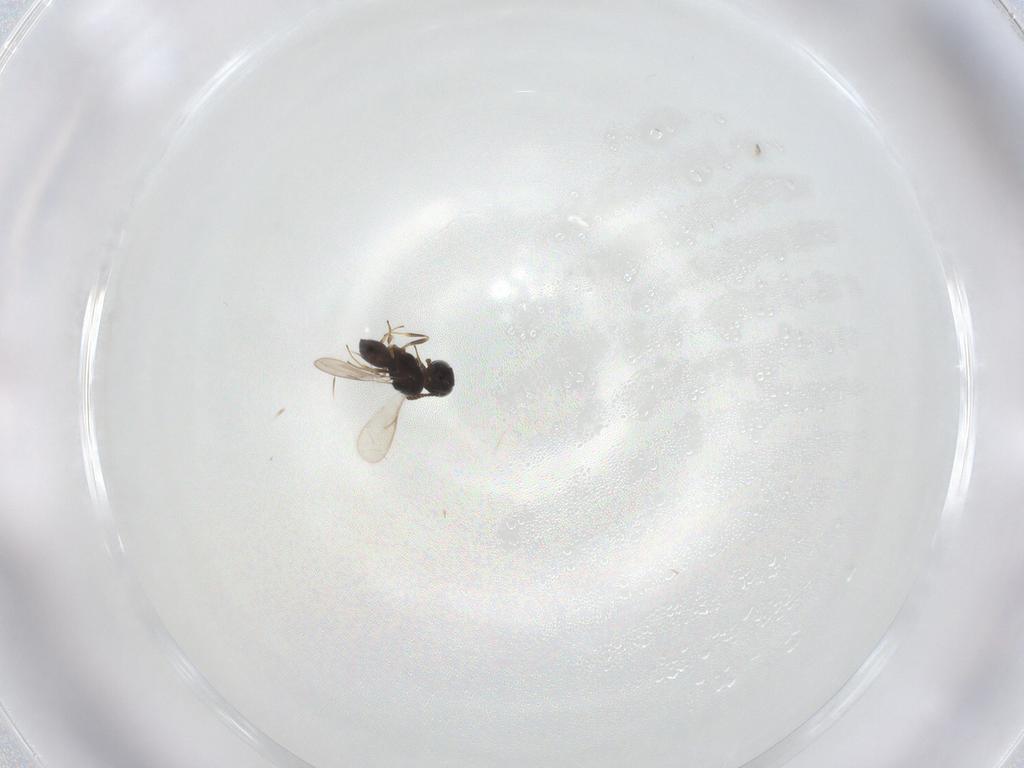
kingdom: Animalia
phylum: Arthropoda
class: Insecta
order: Hymenoptera
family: Scelionidae
